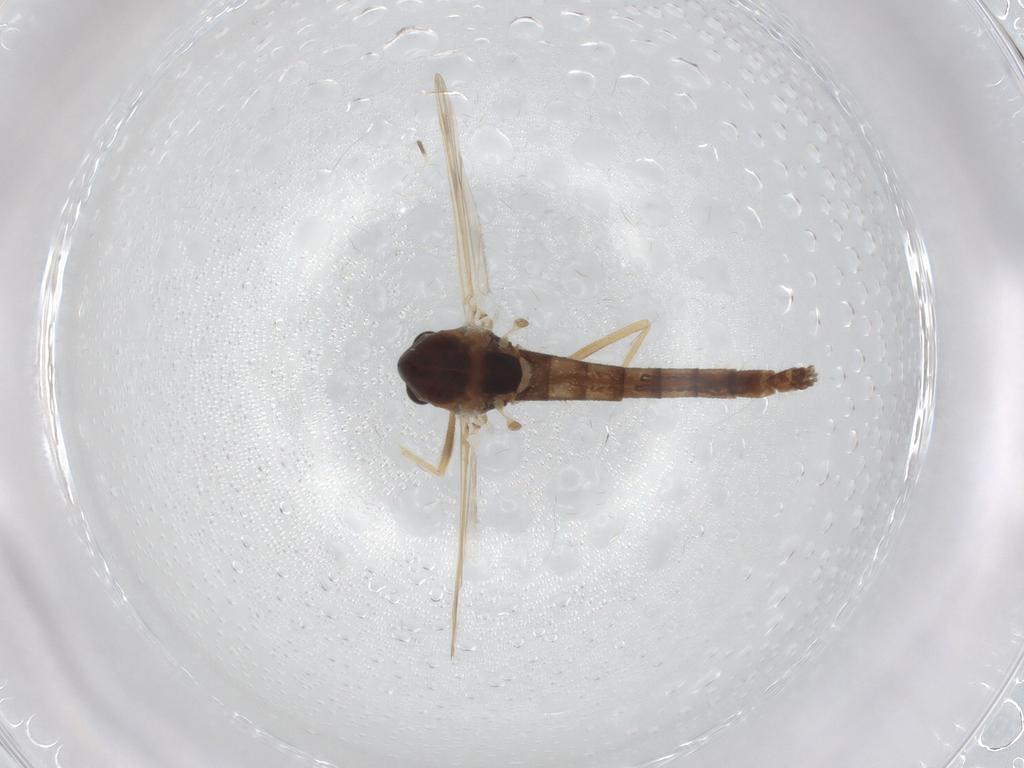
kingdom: Animalia
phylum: Arthropoda
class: Insecta
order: Diptera
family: Chironomidae
